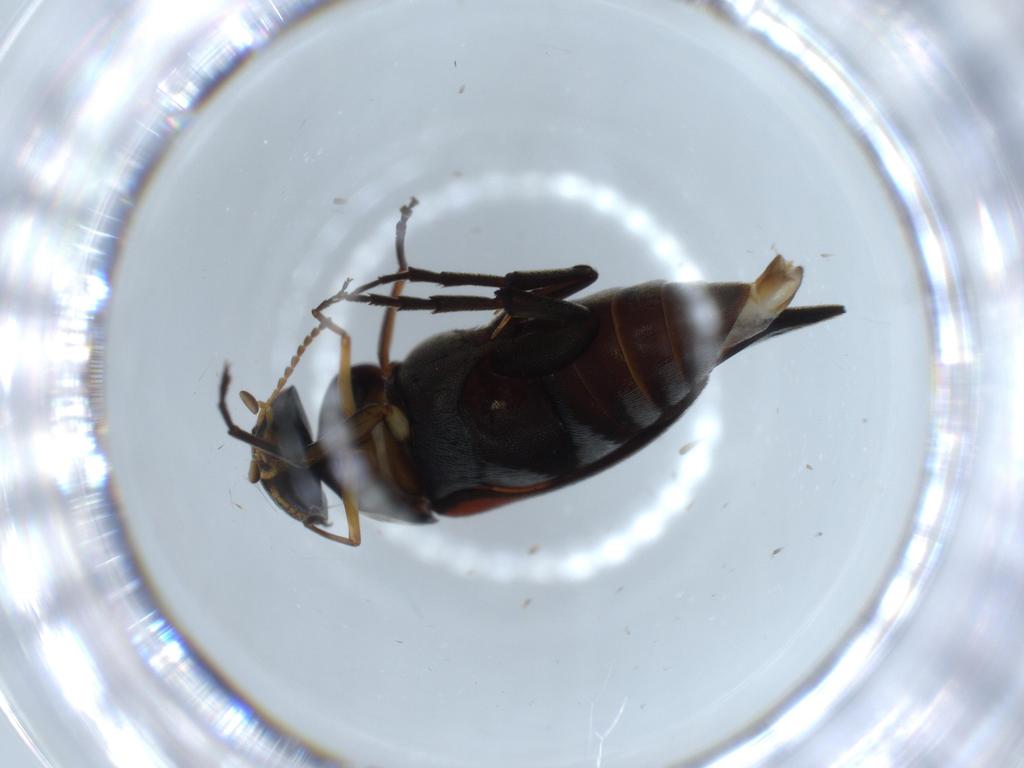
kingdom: Animalia
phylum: Arthropoda
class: Insecta
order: Coleoptera
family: Mordellidae
